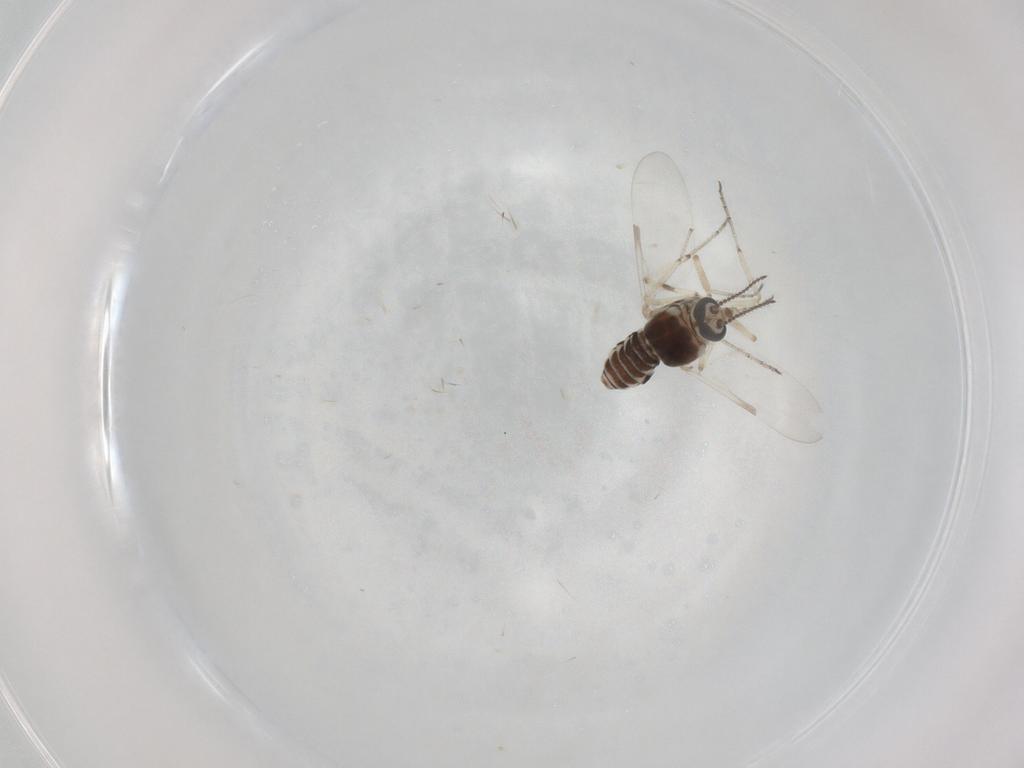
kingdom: Animalia
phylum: Arthropoda
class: Insecta
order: Diptera
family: Ceratopogonidae
